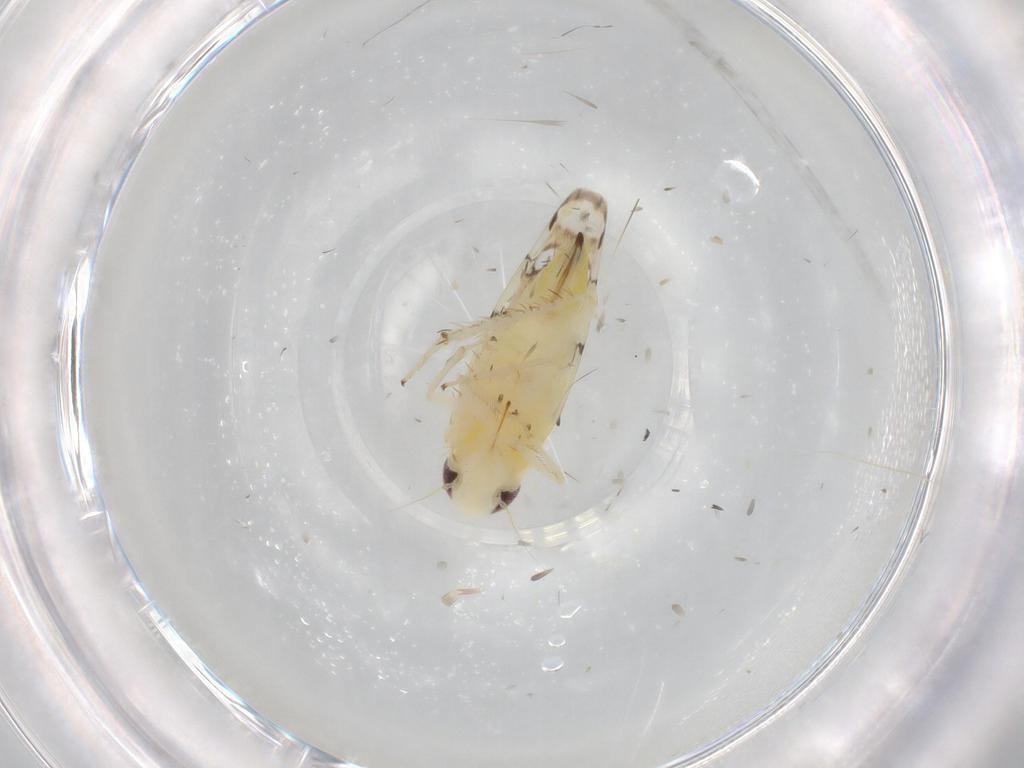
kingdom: Animalia
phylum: Arthropoda
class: Insecta
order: Hemiptera
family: Cicadellidae
